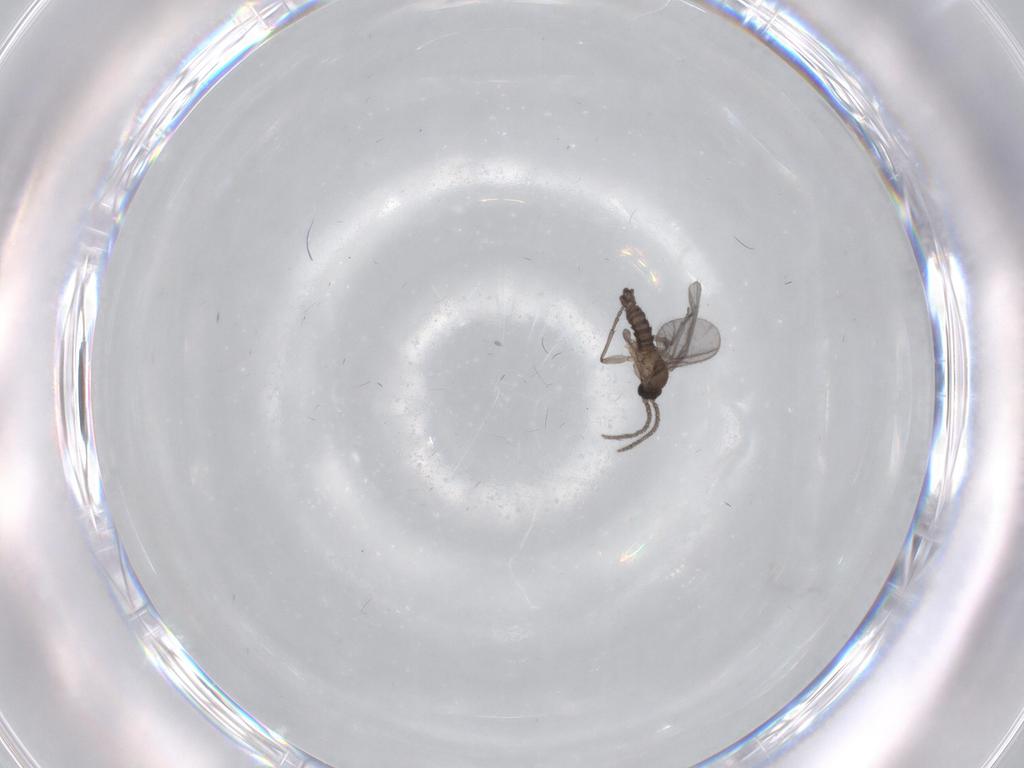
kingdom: Animalia
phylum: Arthropoda
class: Insecta
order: Diptera
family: Sciaridae
